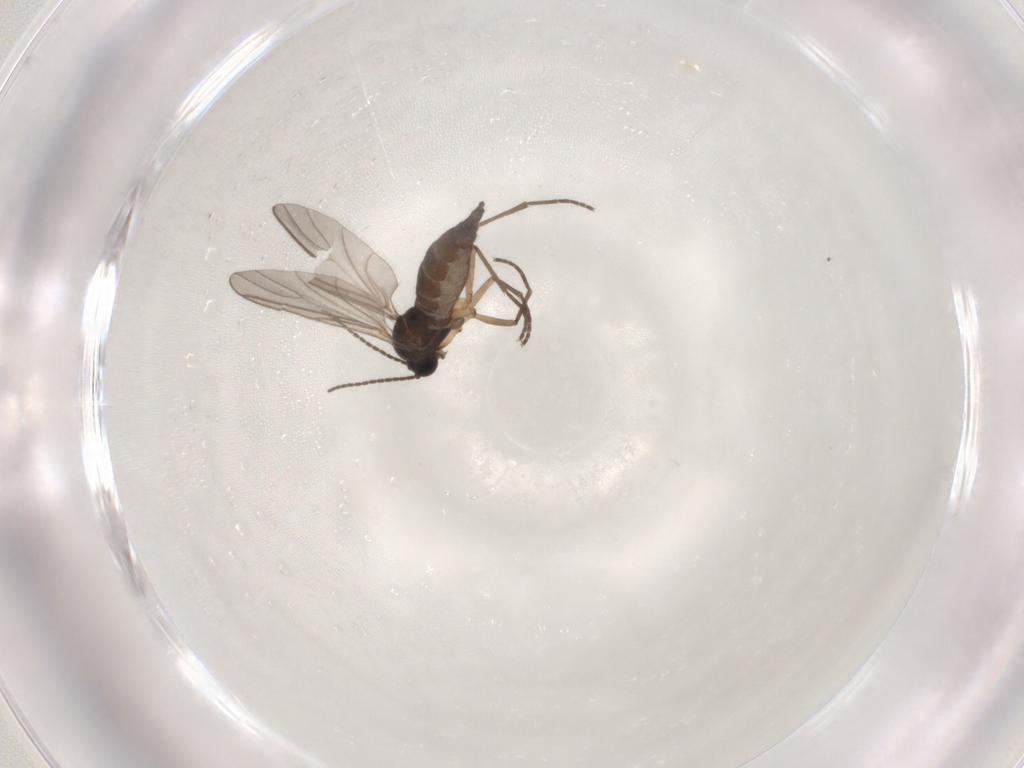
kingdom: Animalia
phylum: Arthropoda
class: Insecta
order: Diptera
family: Sciaridae
